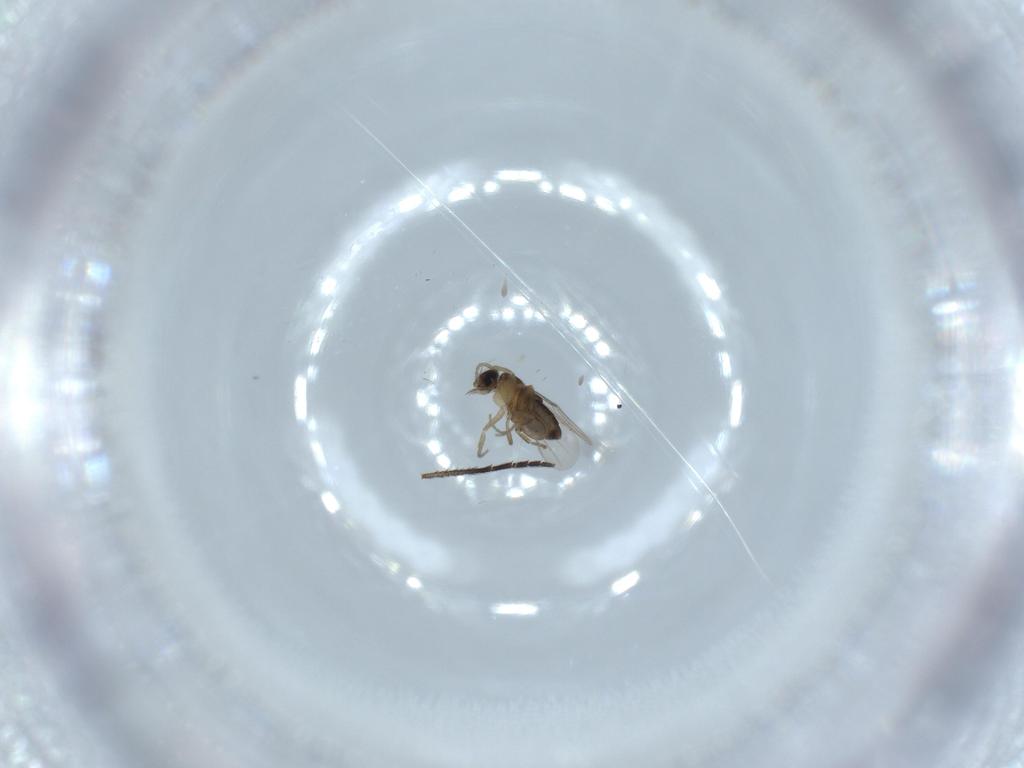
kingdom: Animalia
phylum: Arthropoda
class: Insecta
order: Diptera
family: Phoridae
